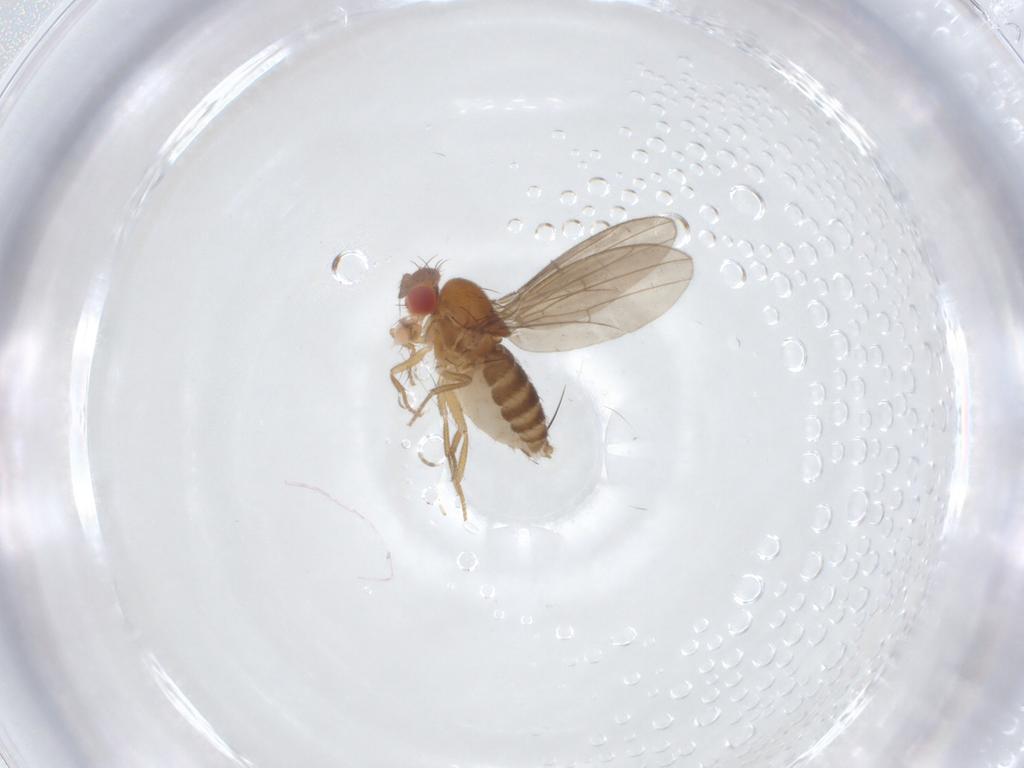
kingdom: Animalia
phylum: Arthropoda
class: Insecta
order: Diptera
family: Drosophilidae
